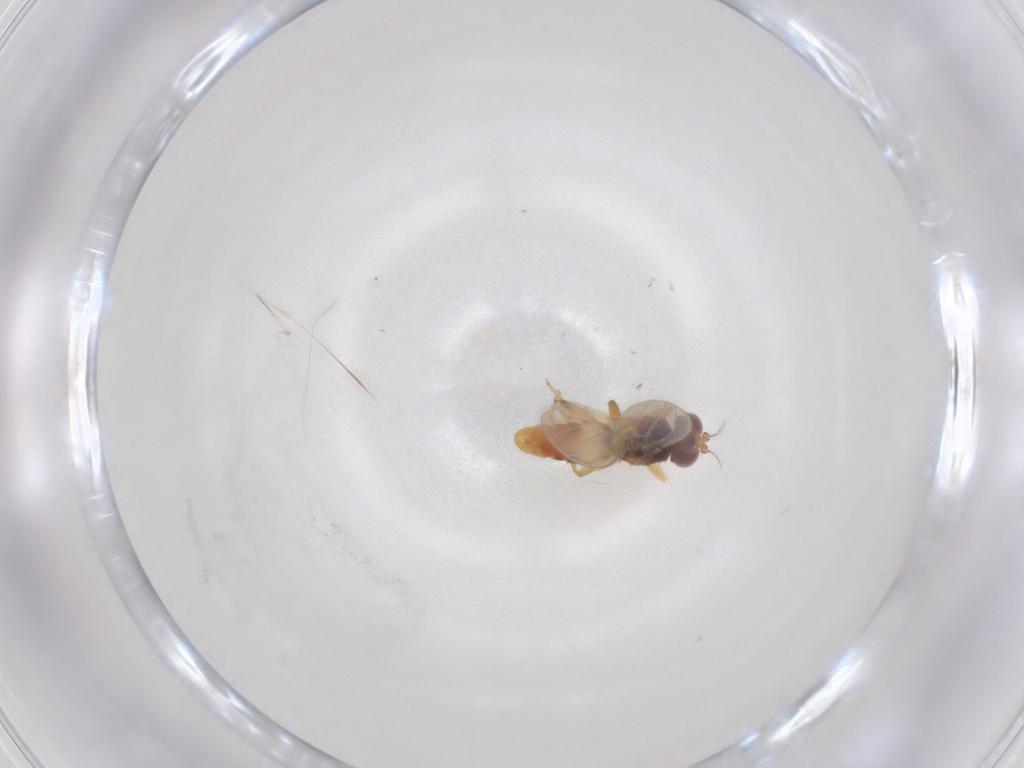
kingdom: Animalia
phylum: Arthropoda
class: Insecta
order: Diptera
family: Periscelididae
